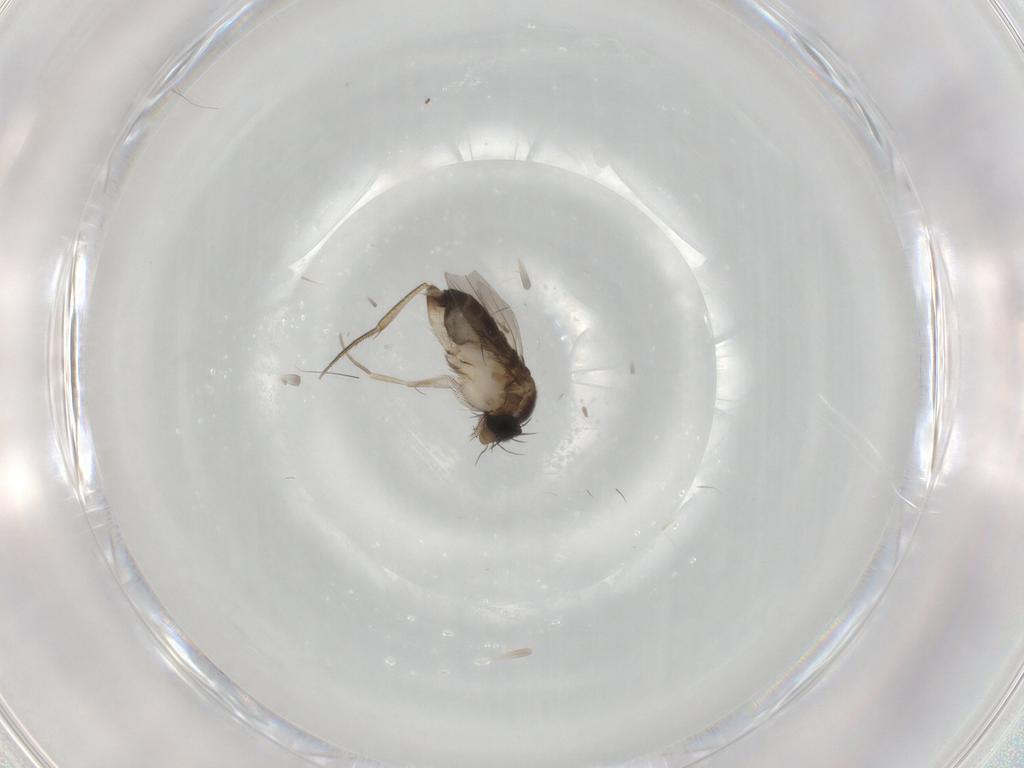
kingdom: Animalia
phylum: Arthropoda
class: Insecta
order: Diptera
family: Phoridae
